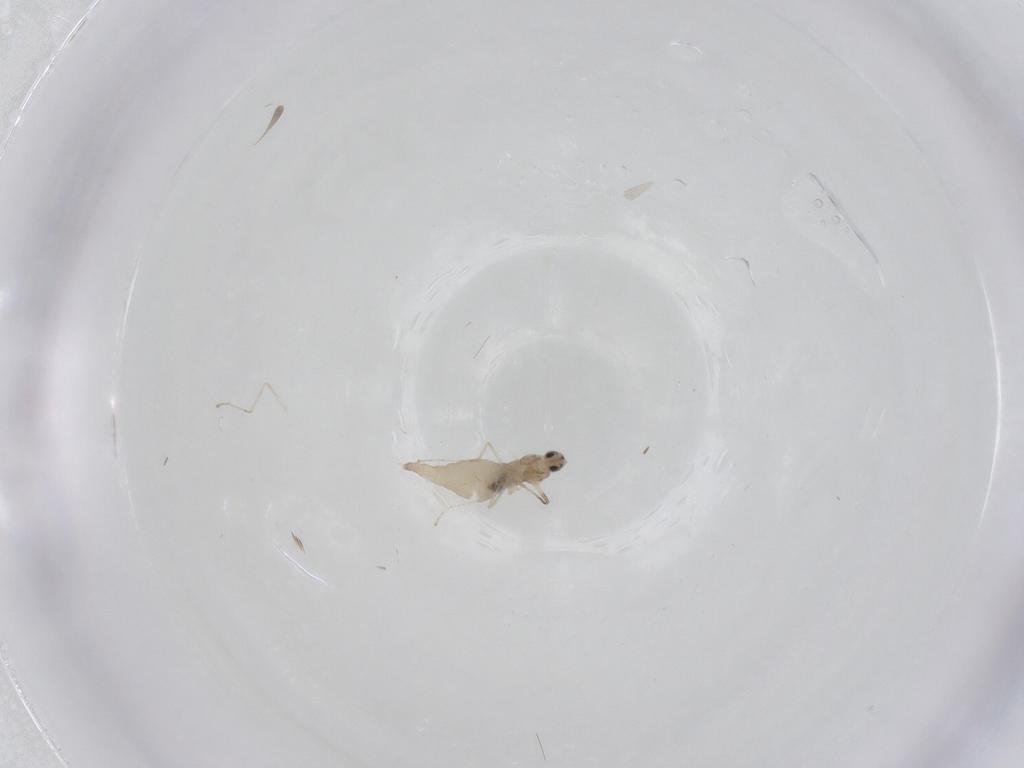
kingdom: Animalia
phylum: Arthropoda
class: Insecta
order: Diptera
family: Cecidomyiidae
